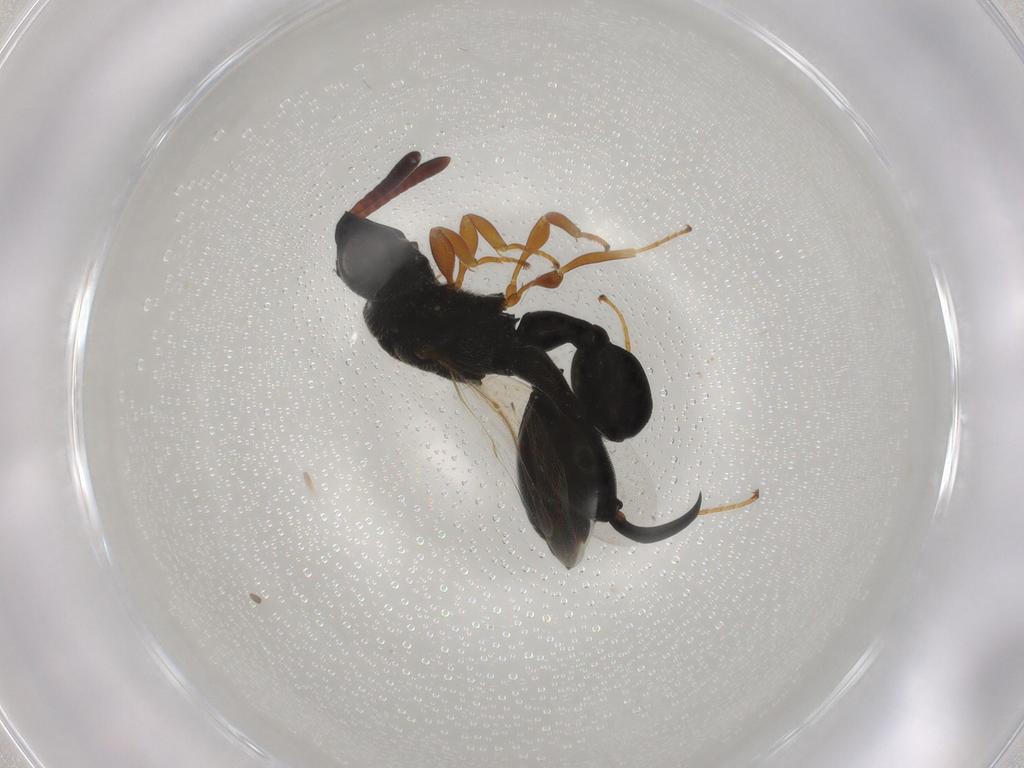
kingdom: Animalia
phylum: Arthropoda
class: Insecta
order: Hymenoptera
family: Chalcididae
